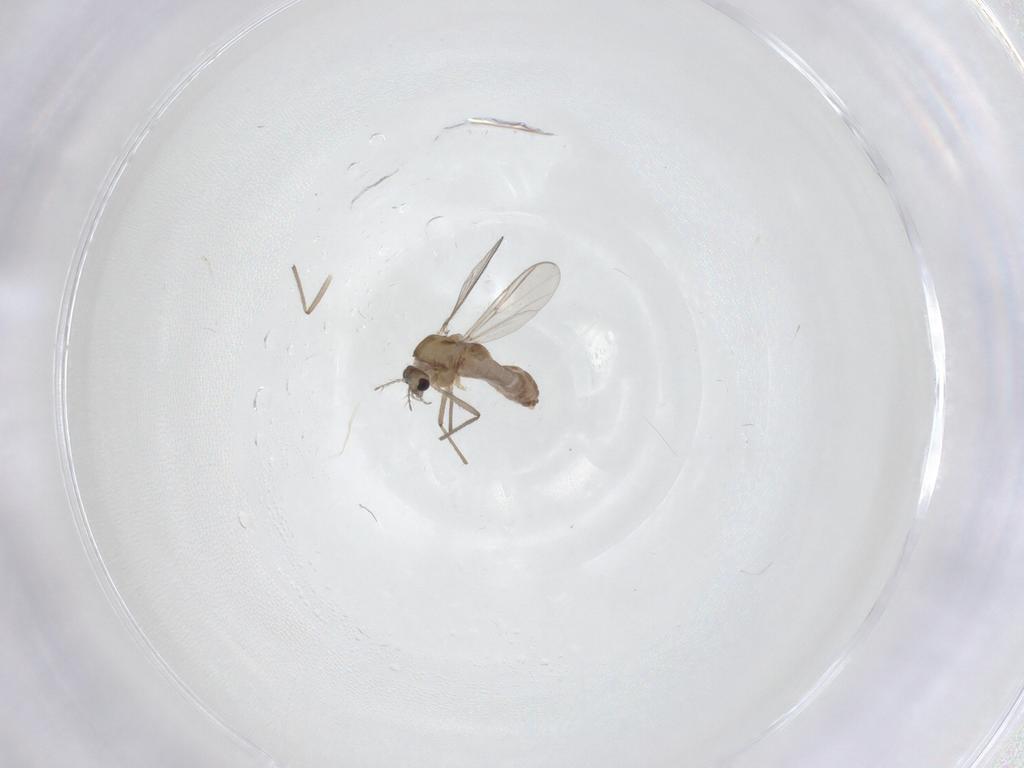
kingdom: Animalia
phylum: Arthropoda
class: Insecta
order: Diptera
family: Chironomidae
